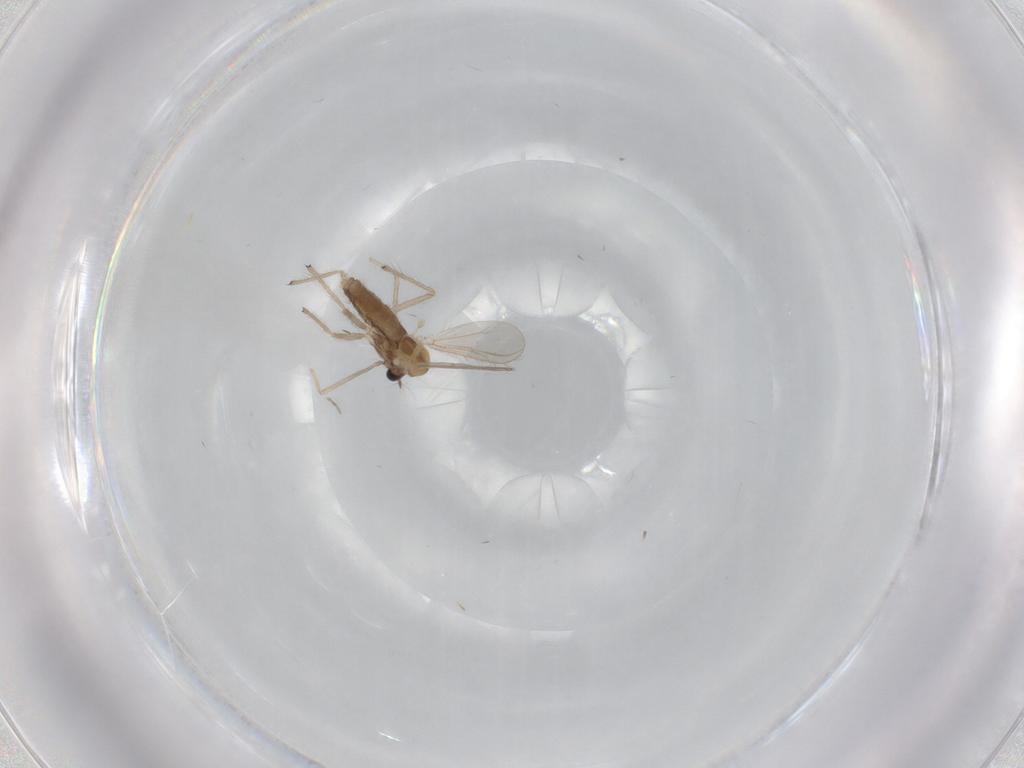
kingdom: Animalia
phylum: Arthropoda
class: Insecta
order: Diptera
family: Chironomidae
